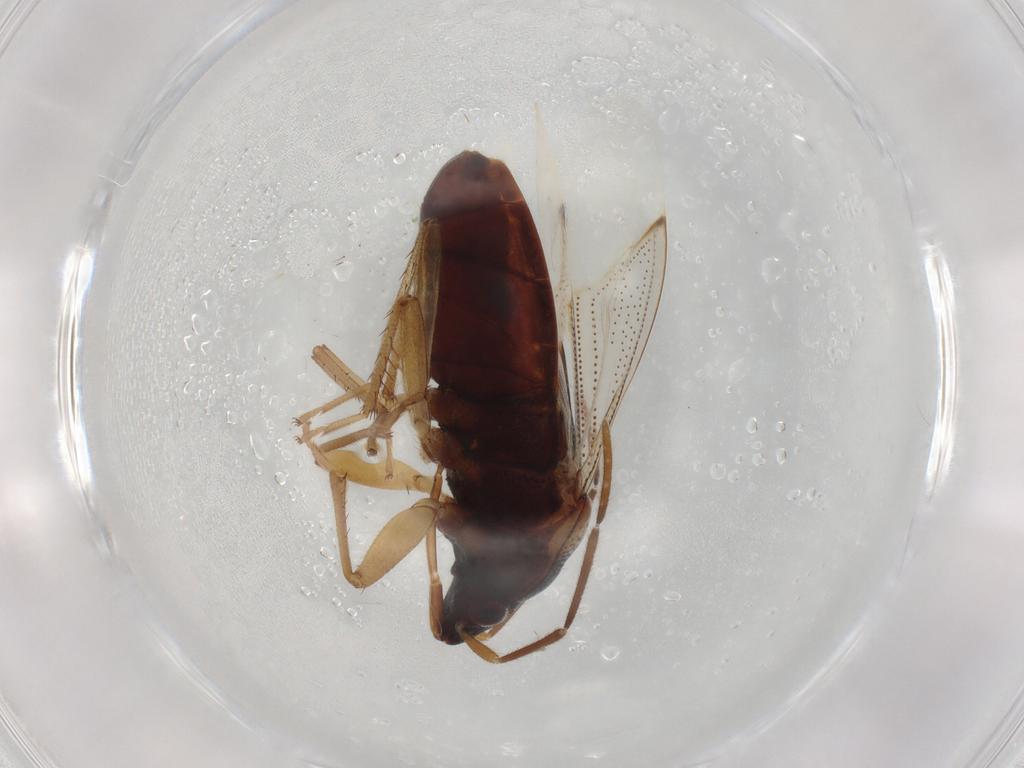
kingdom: Animalia
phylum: Arthropoda
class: Insecta
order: Hemiptera
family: Rhyparochromidae
